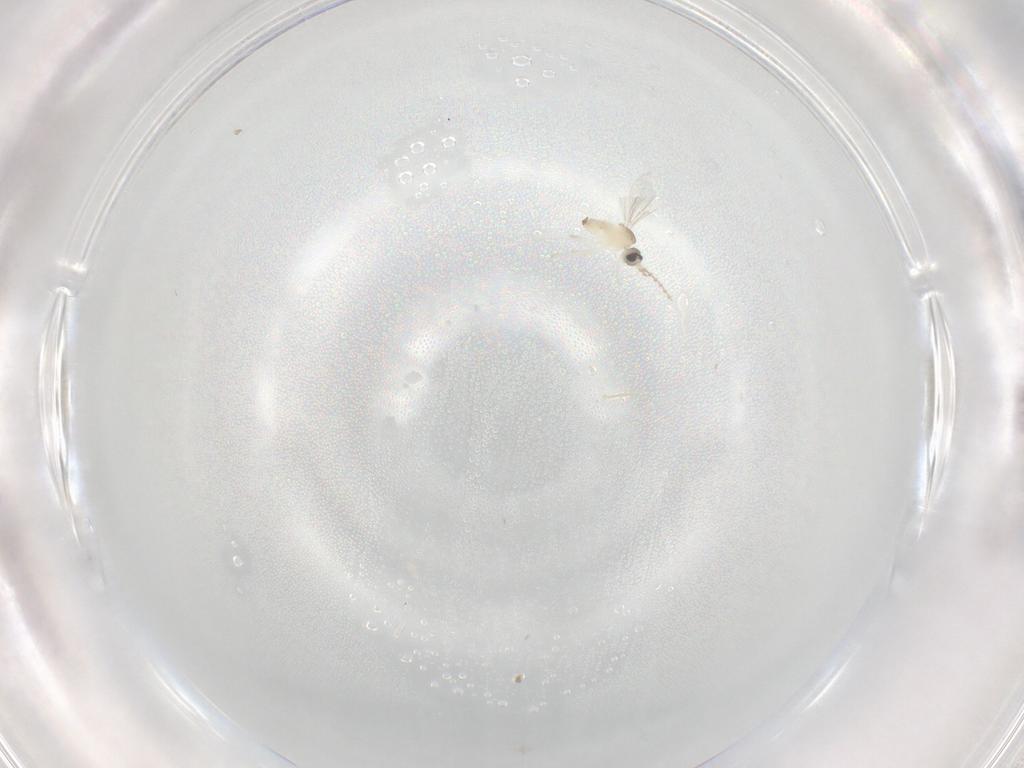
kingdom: Animalia
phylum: Arthropoda
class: Insecta
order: Diptera
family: Cecidomyiidae
